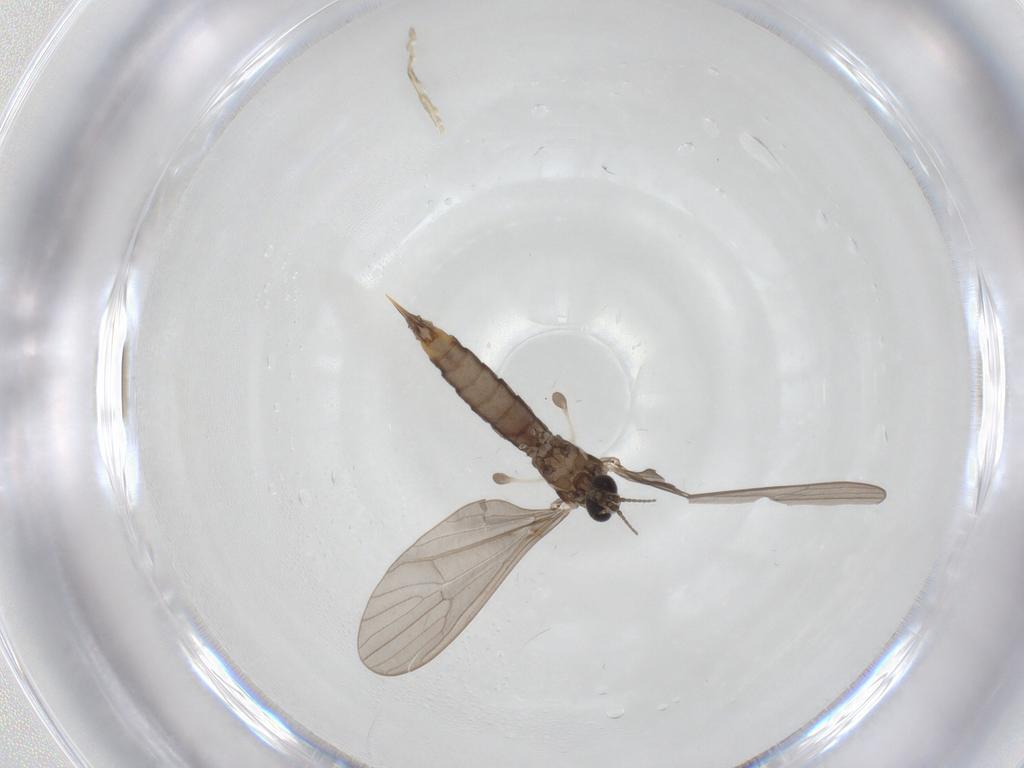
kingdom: Animalia
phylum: Arthropoda
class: Insecta
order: Diptera
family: Limoniidae
